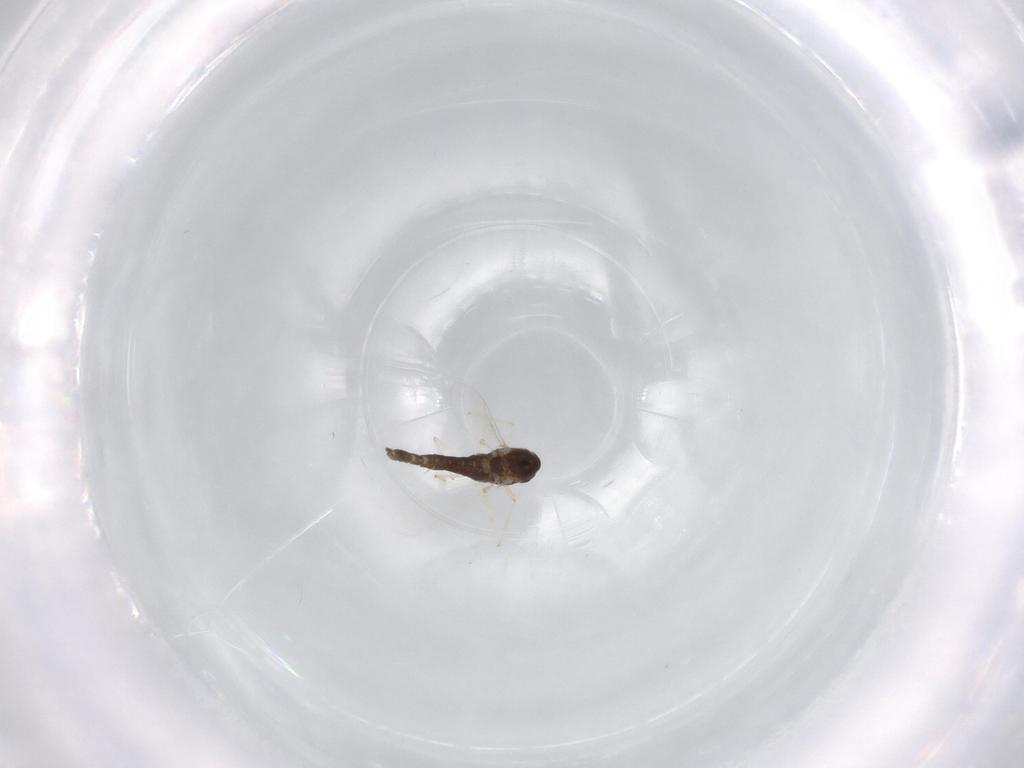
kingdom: Animalia
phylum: Arthropoda
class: Insecta
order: Diptera
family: Chironomidae
